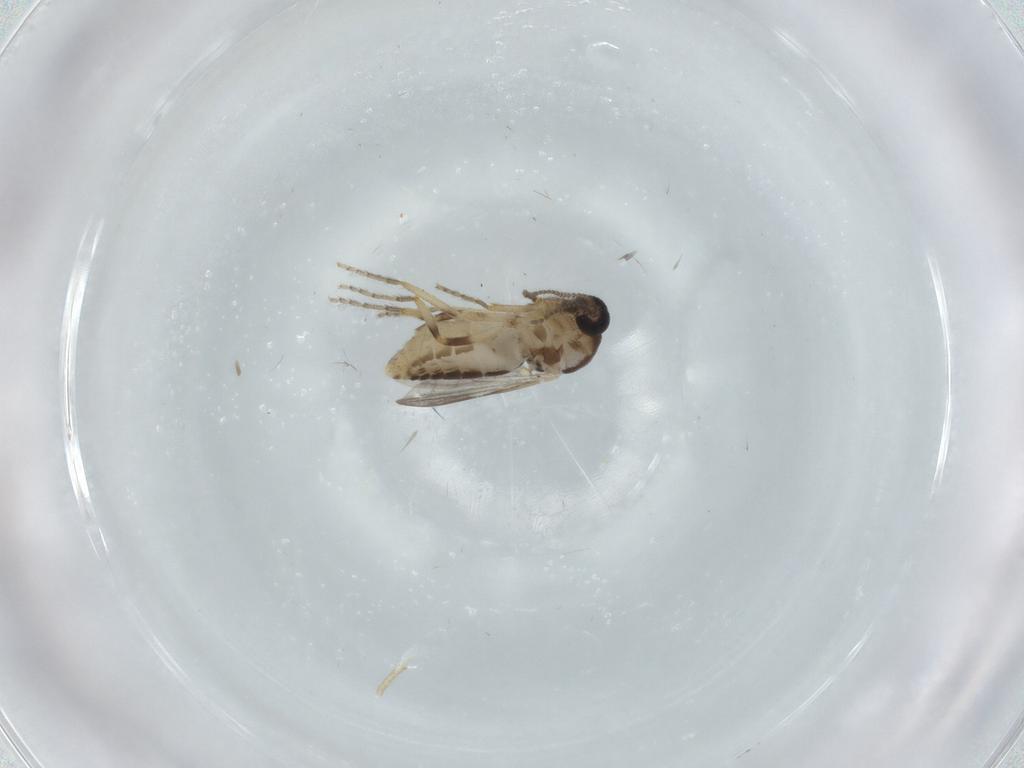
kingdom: Animalia
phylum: Arthropoda
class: Insecta
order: Diptera
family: Ceratopogonidae
